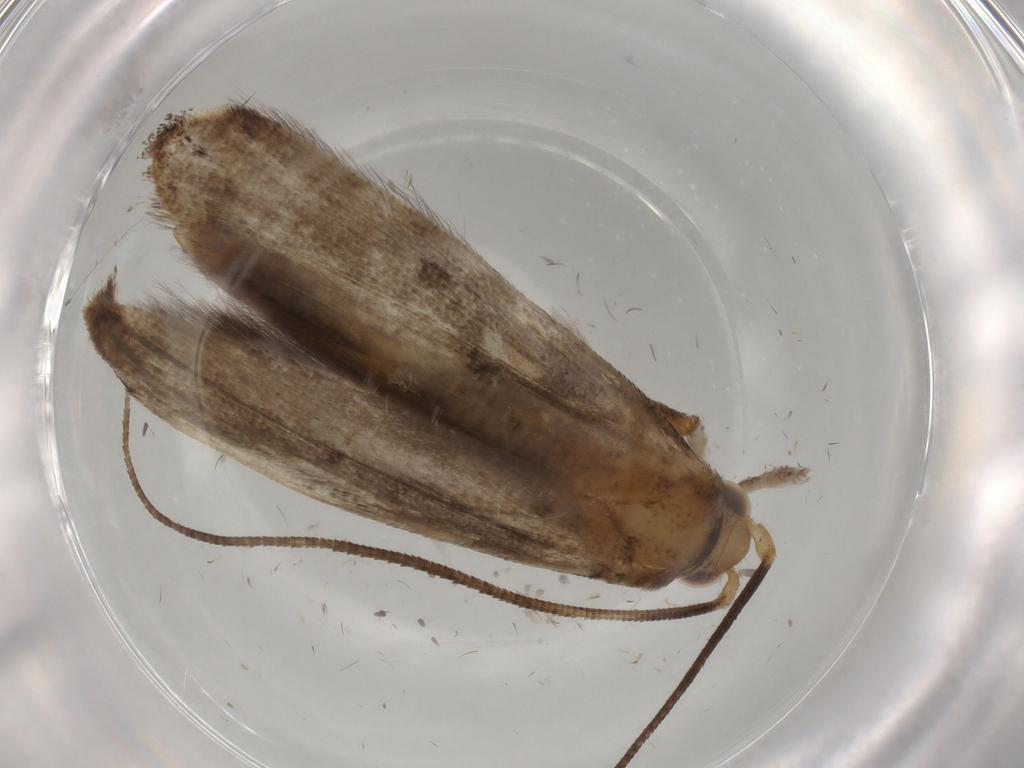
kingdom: Animalia
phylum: Arthropoda
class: Insecta
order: Lepidoptera
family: Yponomeutidae
